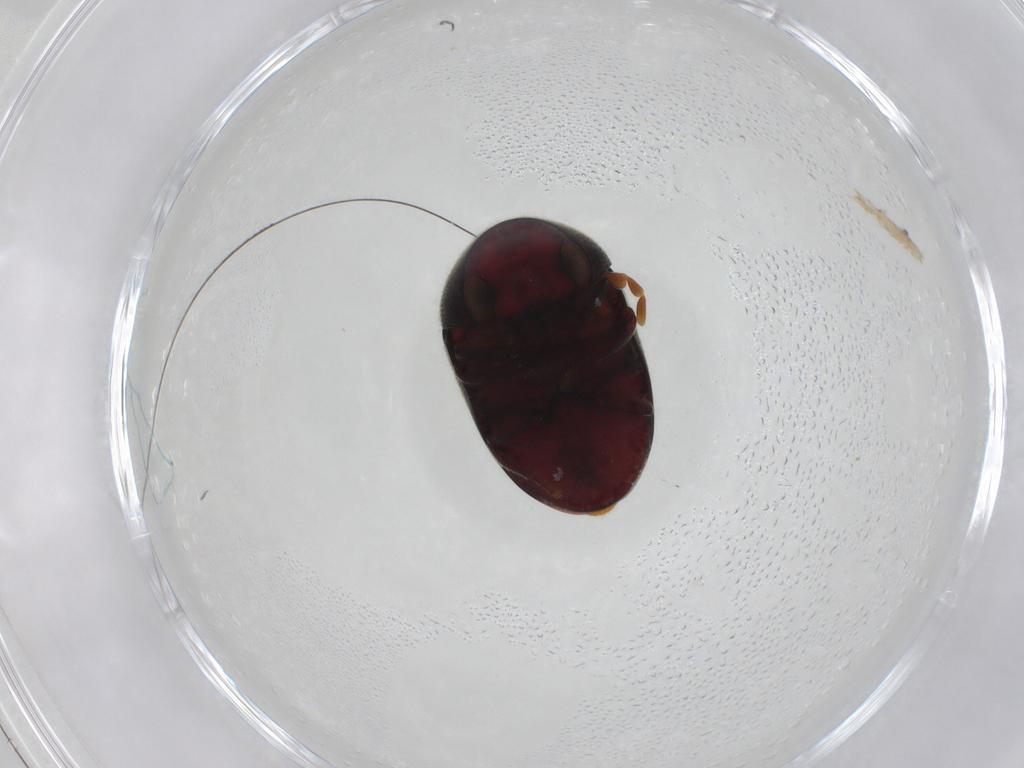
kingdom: Animalia
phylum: Arthropoda
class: Insecta
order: Coleoptera
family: Ptinidae
